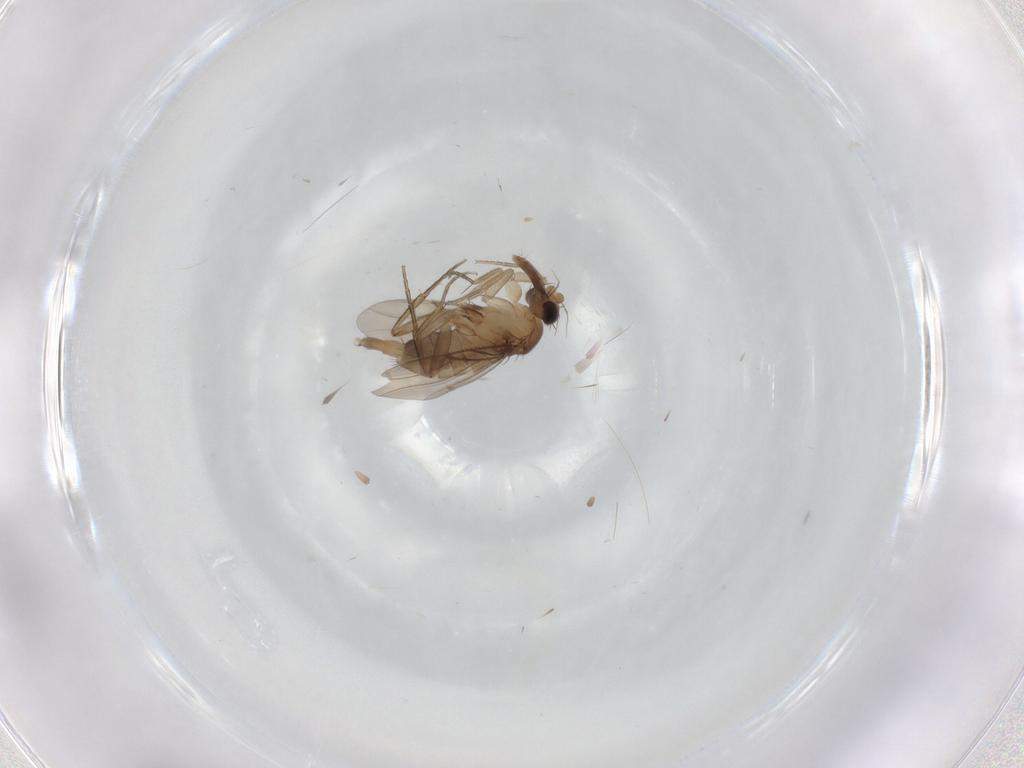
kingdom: Animalia
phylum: Arthropoda
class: Insecta
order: Diptera
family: Phoridae
